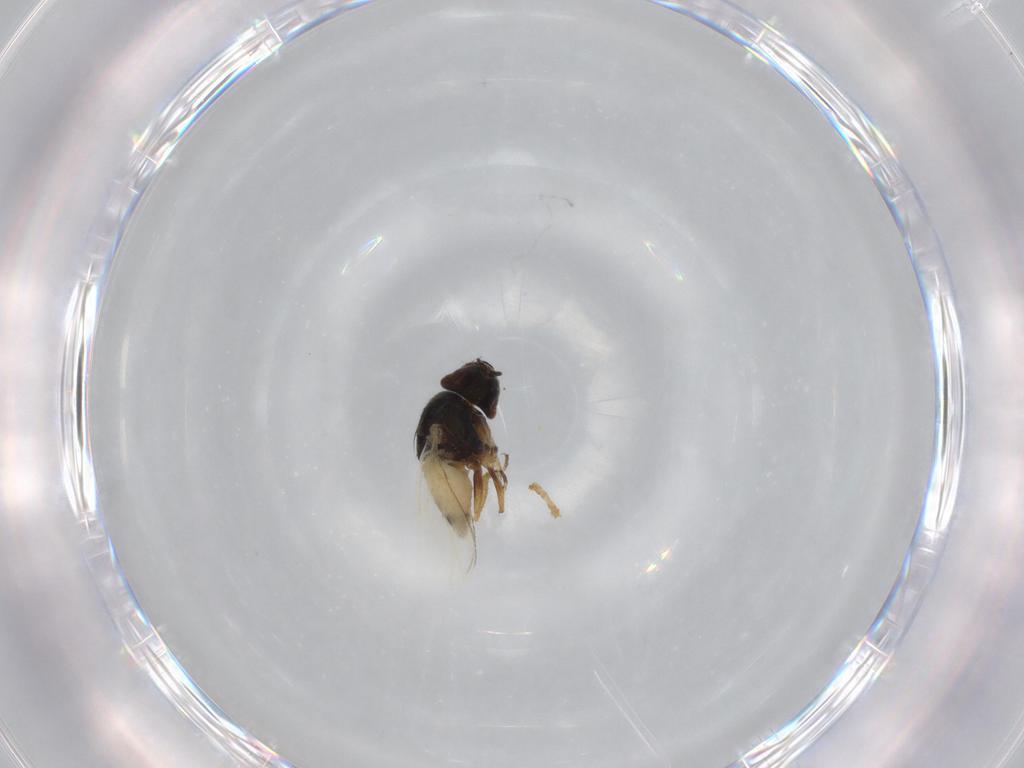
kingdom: Animalia
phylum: Arthropoda
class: Insecta
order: Diptera
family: Ephydridae
